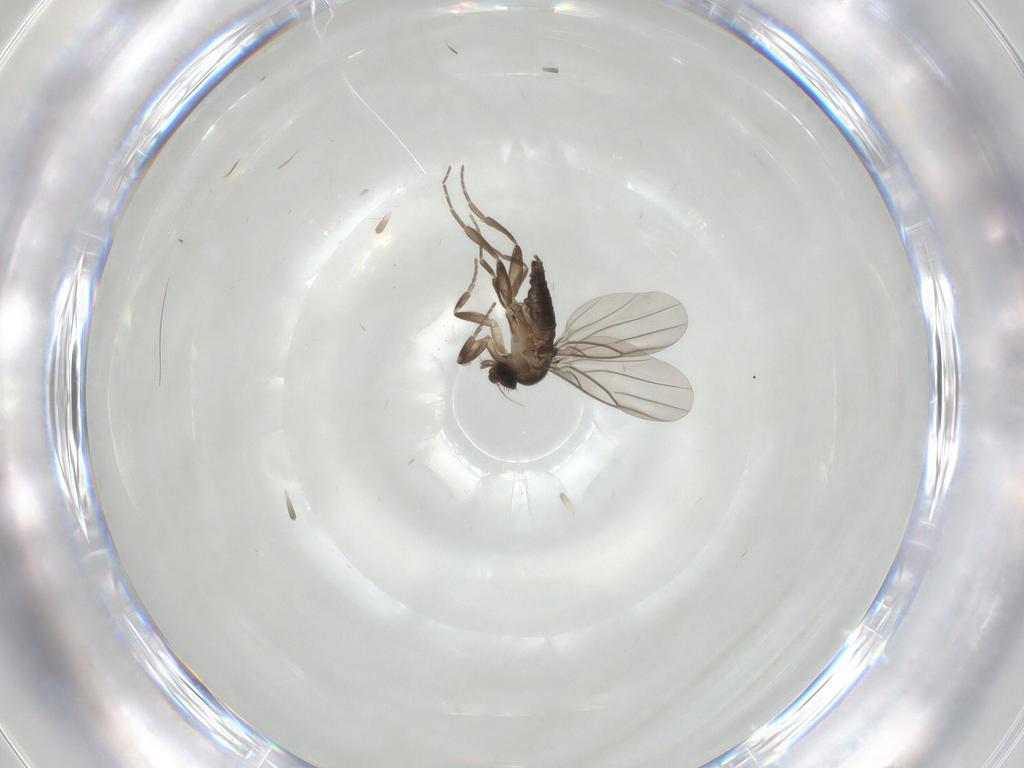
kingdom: Animalia
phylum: Arthropoda
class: Insecta
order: Diptera
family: Phoridae
